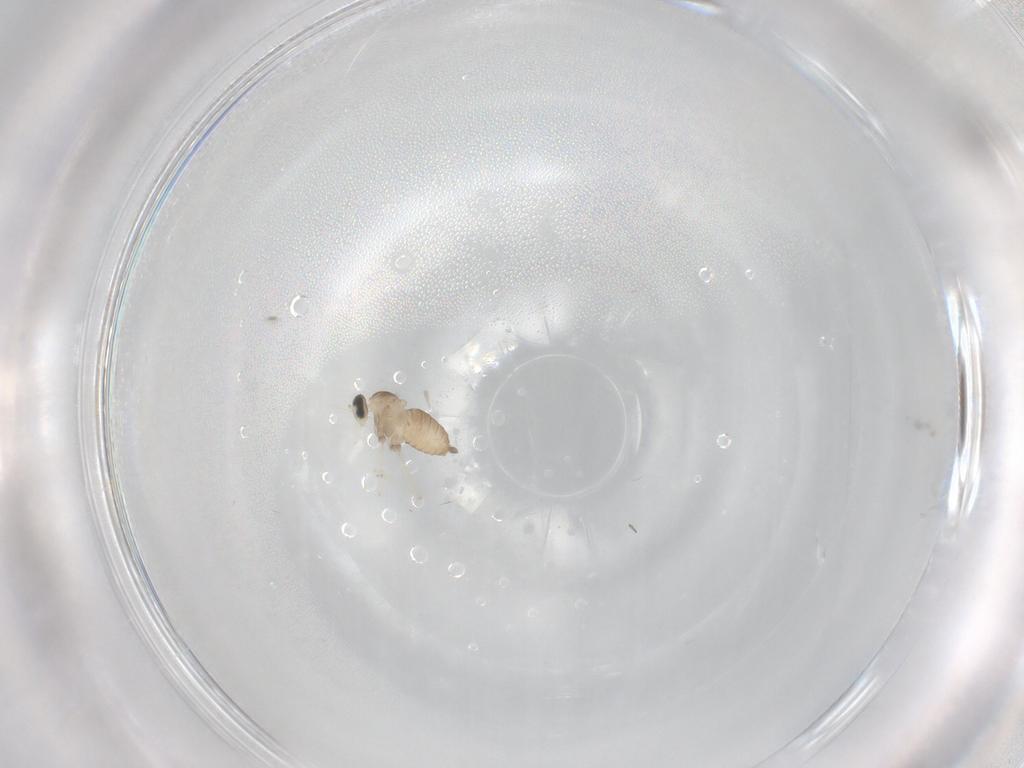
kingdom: Animalia
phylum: Arthropoda
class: Insecta
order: Diptera
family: Cecidomyiidae
